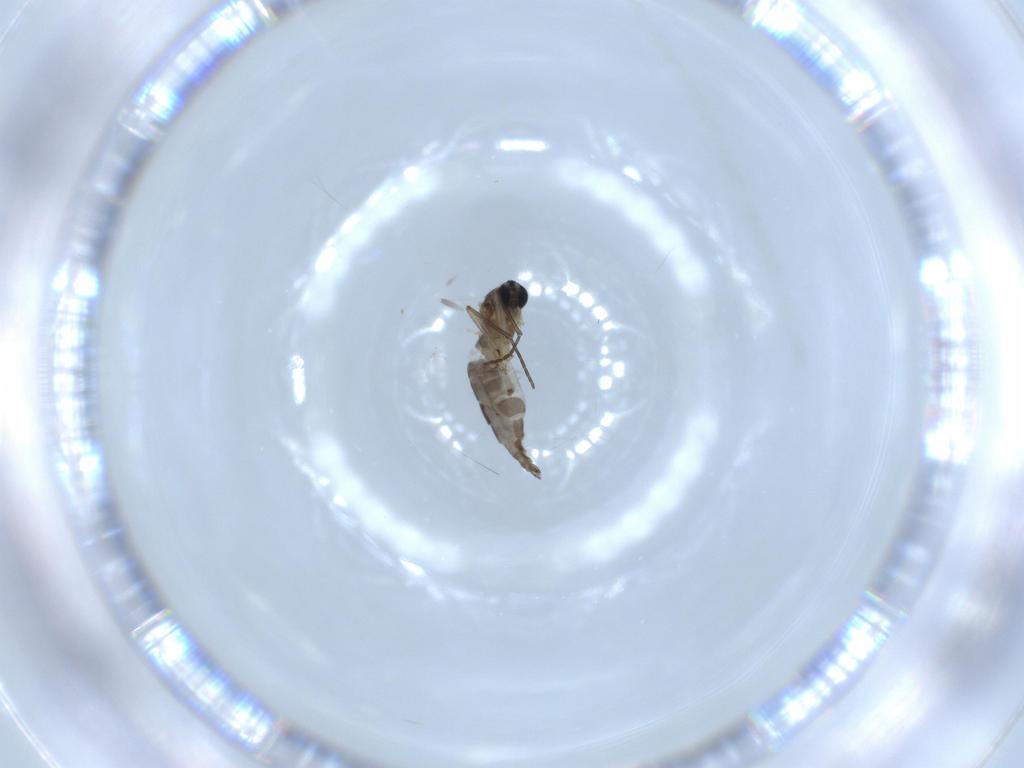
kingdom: Animalia
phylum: Arthropoda
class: Insecta
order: Diptera
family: Sciaridae
